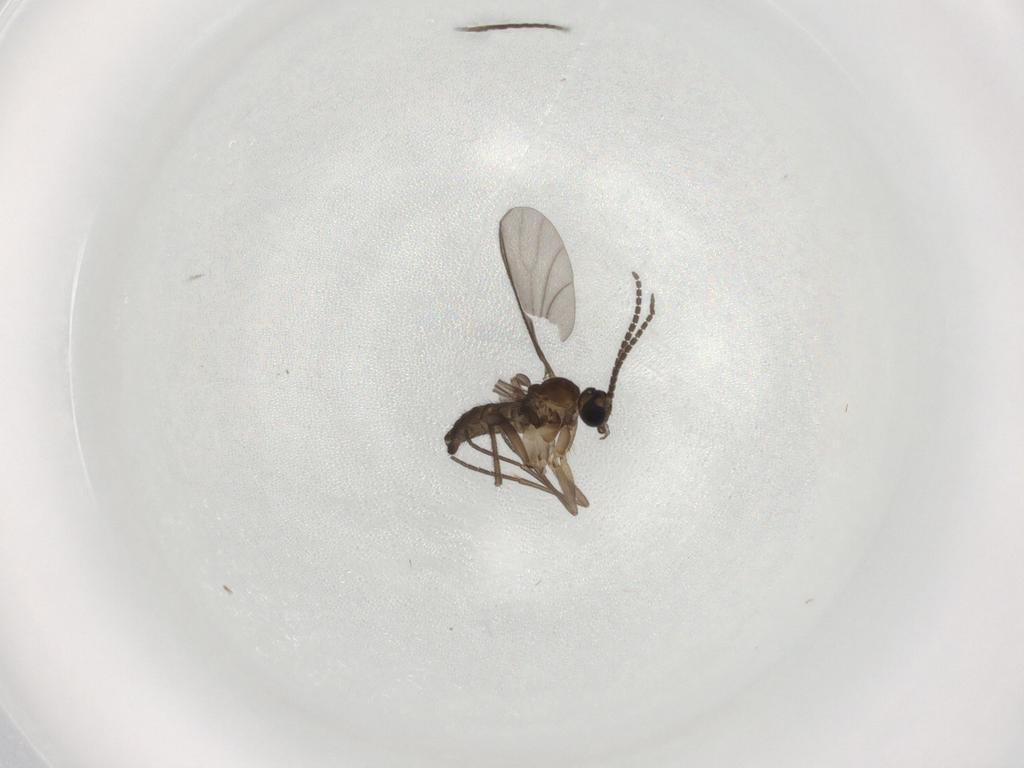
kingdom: Animalia
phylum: Arthropoda
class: Insecta
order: Diptera
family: Sciaridae
